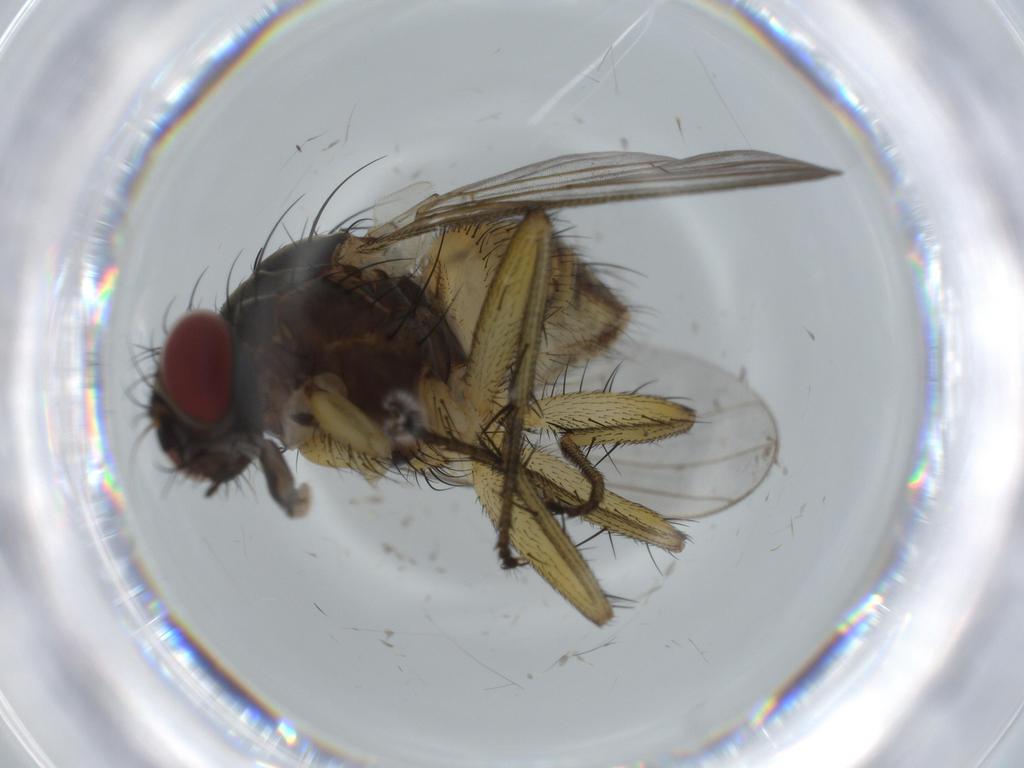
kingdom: Animalia
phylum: Arthropoda
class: Insecta
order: Diptera
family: Cecidomyiidae
